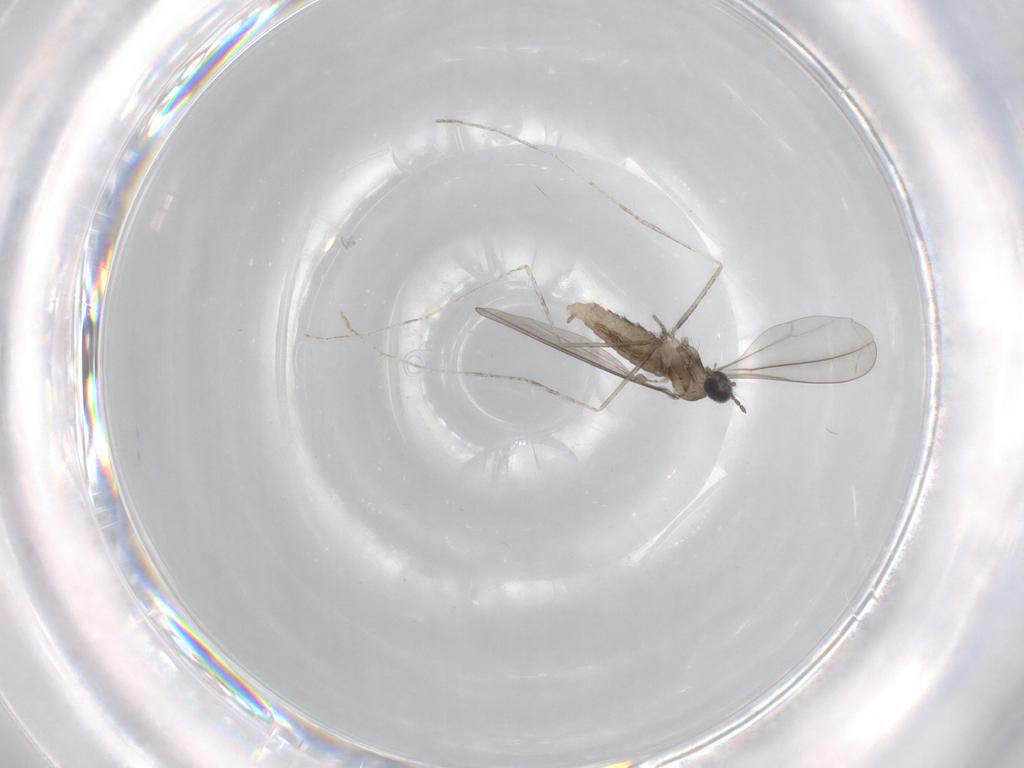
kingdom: Animalia
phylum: Arthropoda
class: Insecta
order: Diptera
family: Cecidomyiidae
